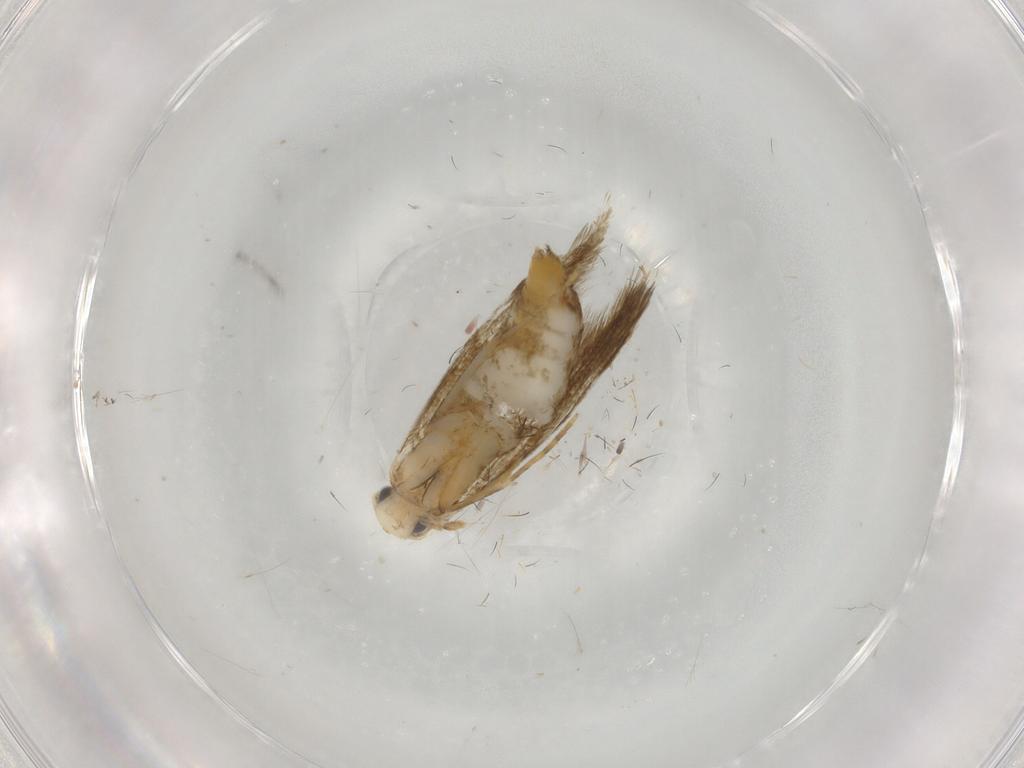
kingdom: Animalia
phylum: Arthropoda
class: Insecta
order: Lepidoptera
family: Tineidae
